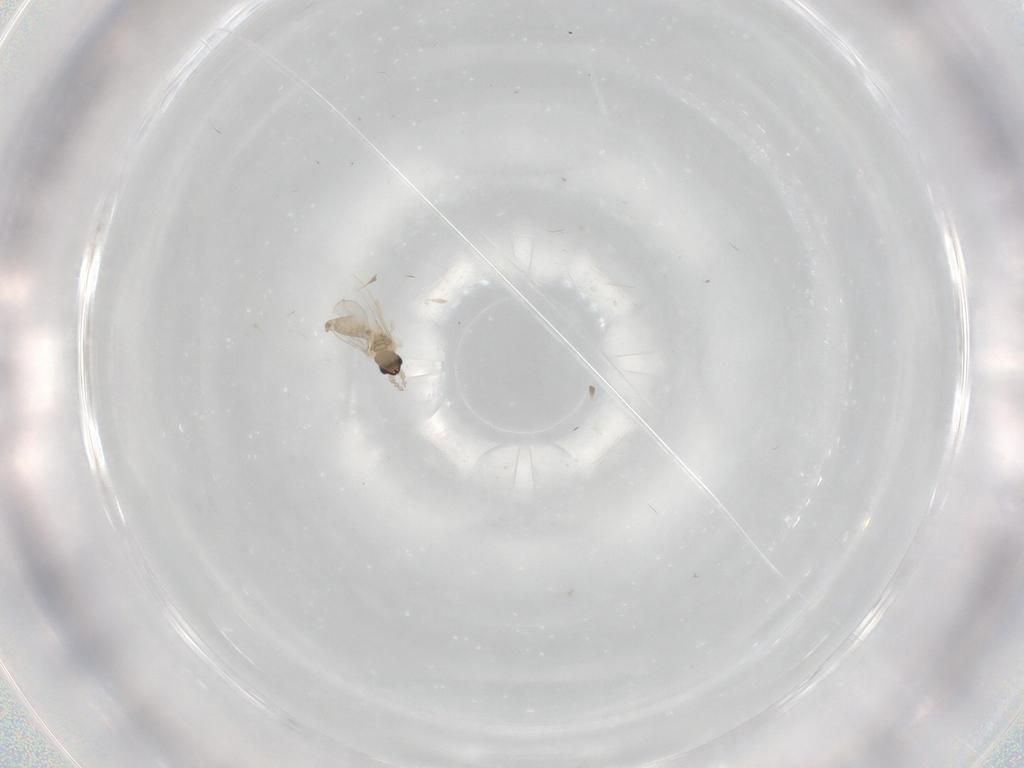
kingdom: Animalia
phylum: Arthropoda
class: Insecta
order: Diptera
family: Cecidomyiidae
